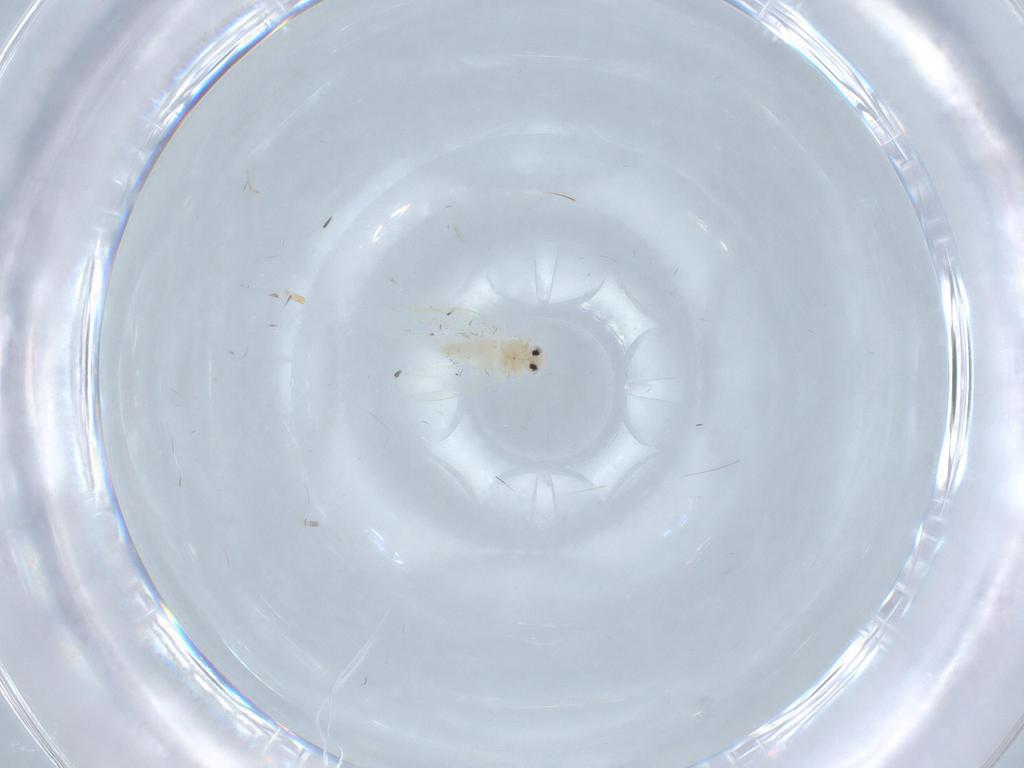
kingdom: Animalia
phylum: Arthropoda
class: Insecta
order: Hemiptera
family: Aleyrodidae
